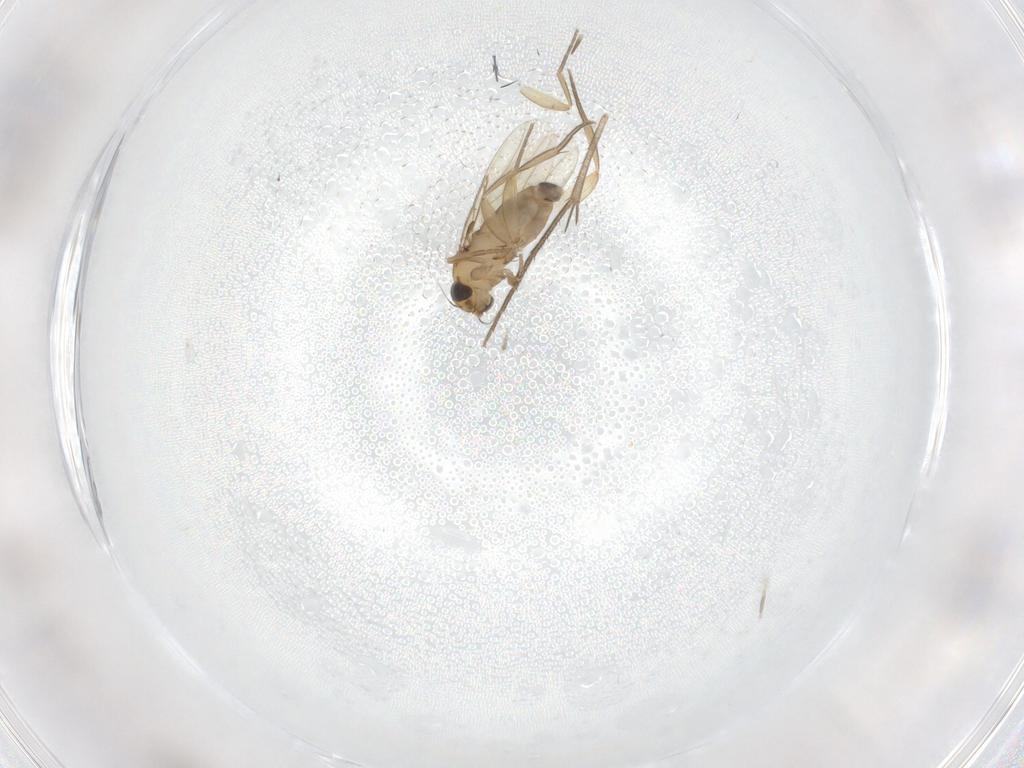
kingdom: Animalia
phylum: Arthropoda
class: Insecta
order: Diptera
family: Phoridae
